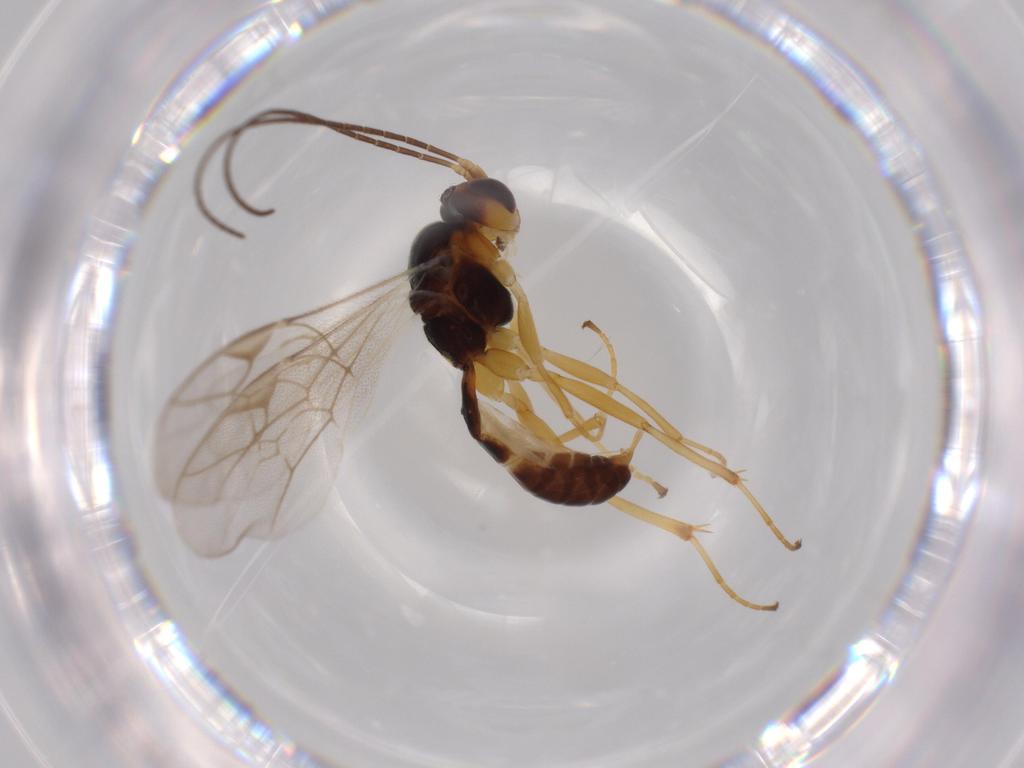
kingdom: Animalia
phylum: Arthropoda
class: Insecta
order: Hymenoptera
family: Ichneumonidae
